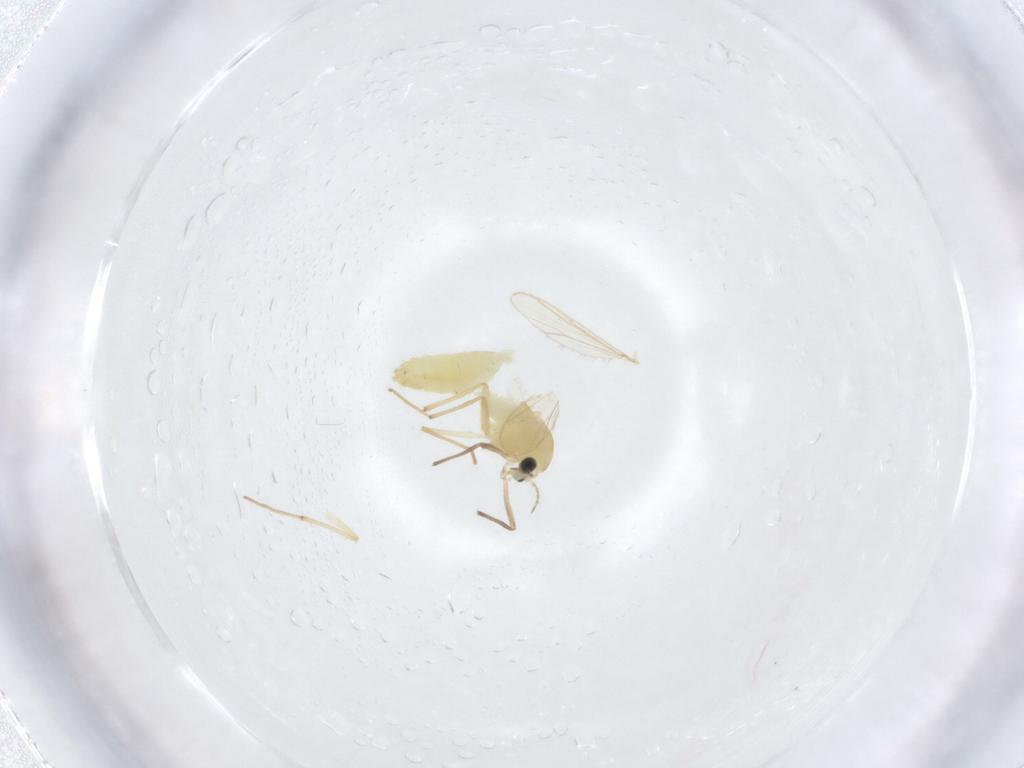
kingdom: Animalia
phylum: Arthropoda
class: Insecta
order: Diptera
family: Chironomidae
